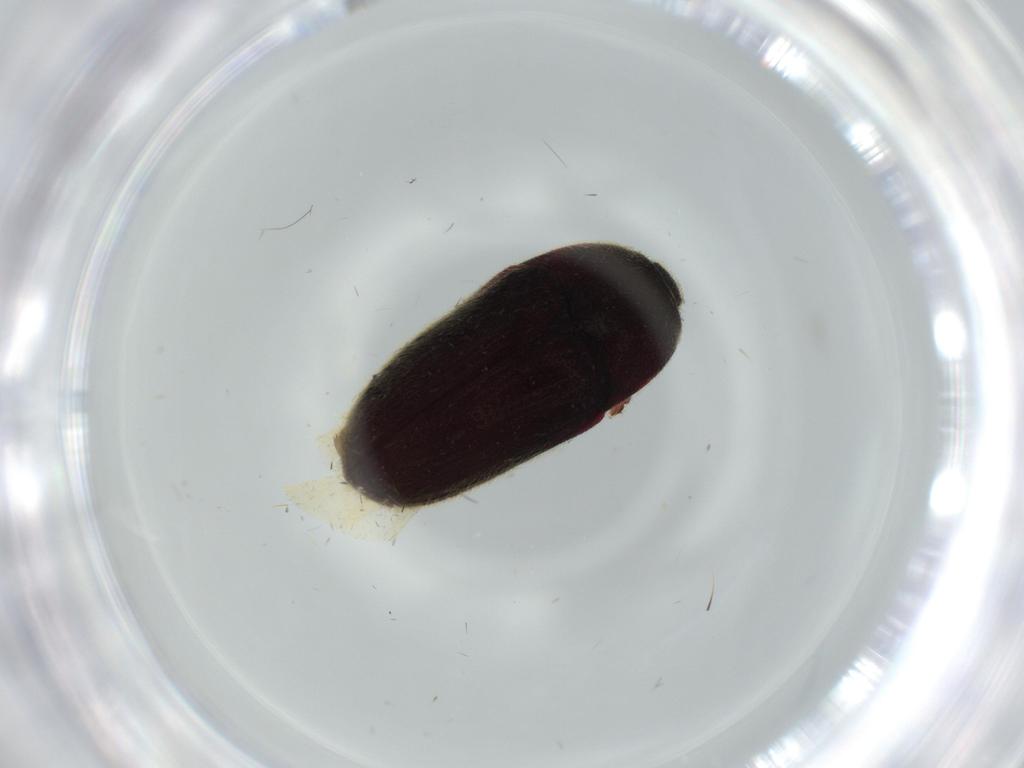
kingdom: Animalia
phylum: Arthropoda
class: Insecta
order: Coleoptera
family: Throscidae
